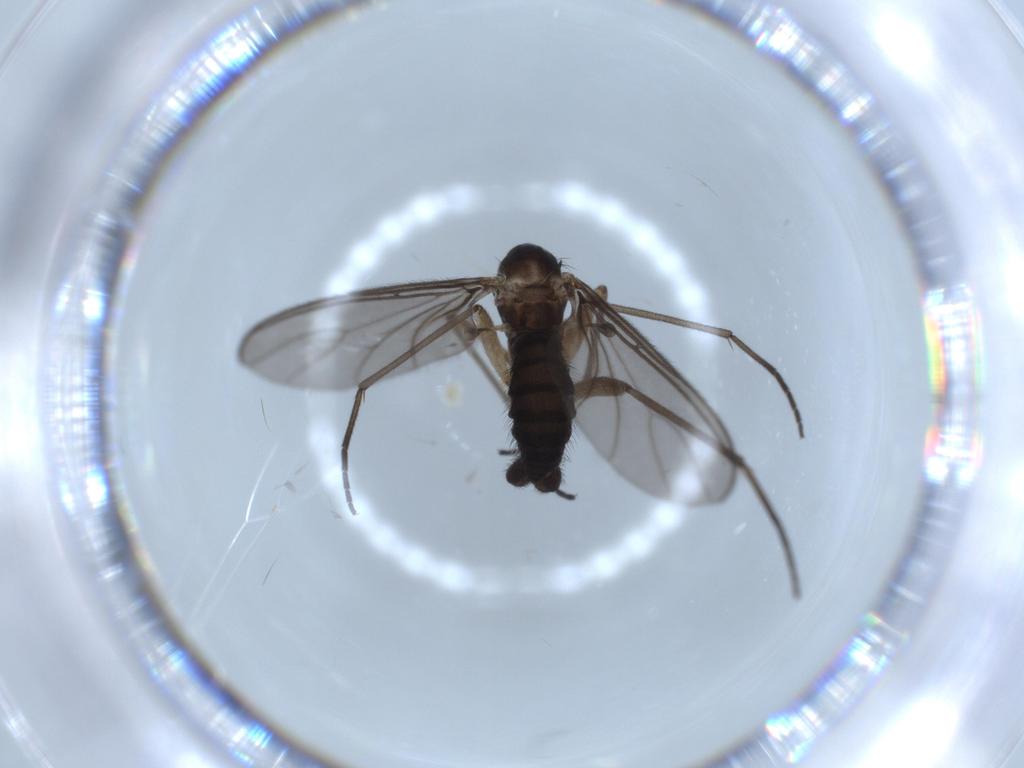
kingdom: Animalia
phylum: Arthropoda
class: Insecta
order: Diptera
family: Sciaridae
